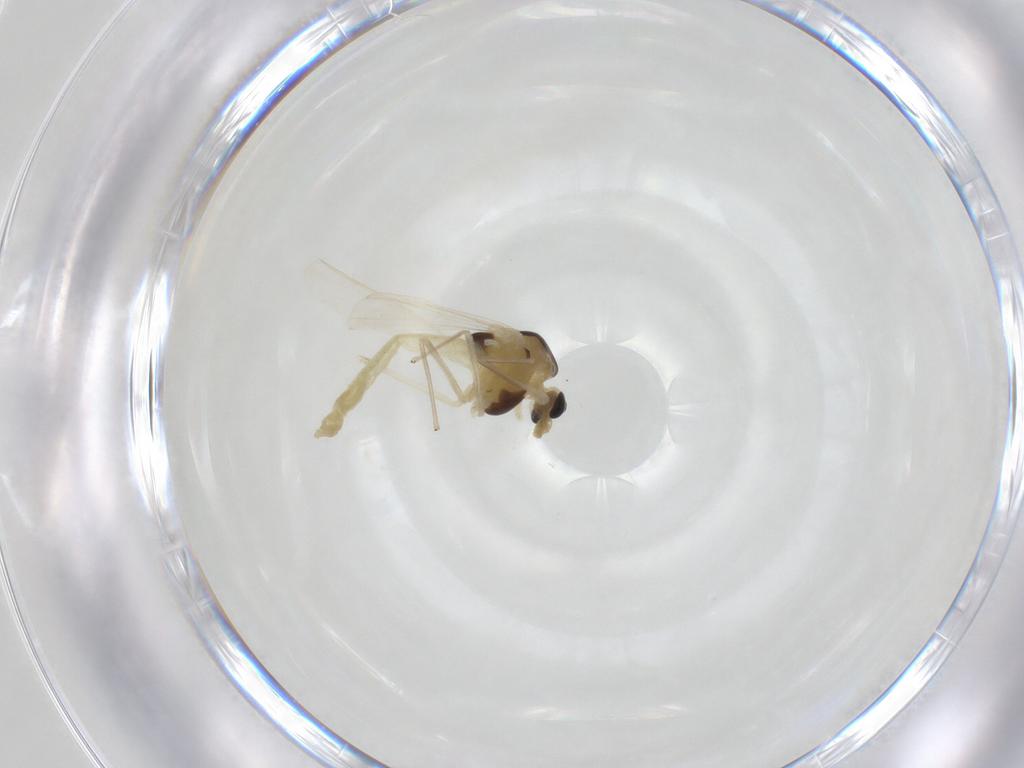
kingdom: Animalia
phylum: Arthropoda
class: Insecta
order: Diptera
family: Chironomidae
